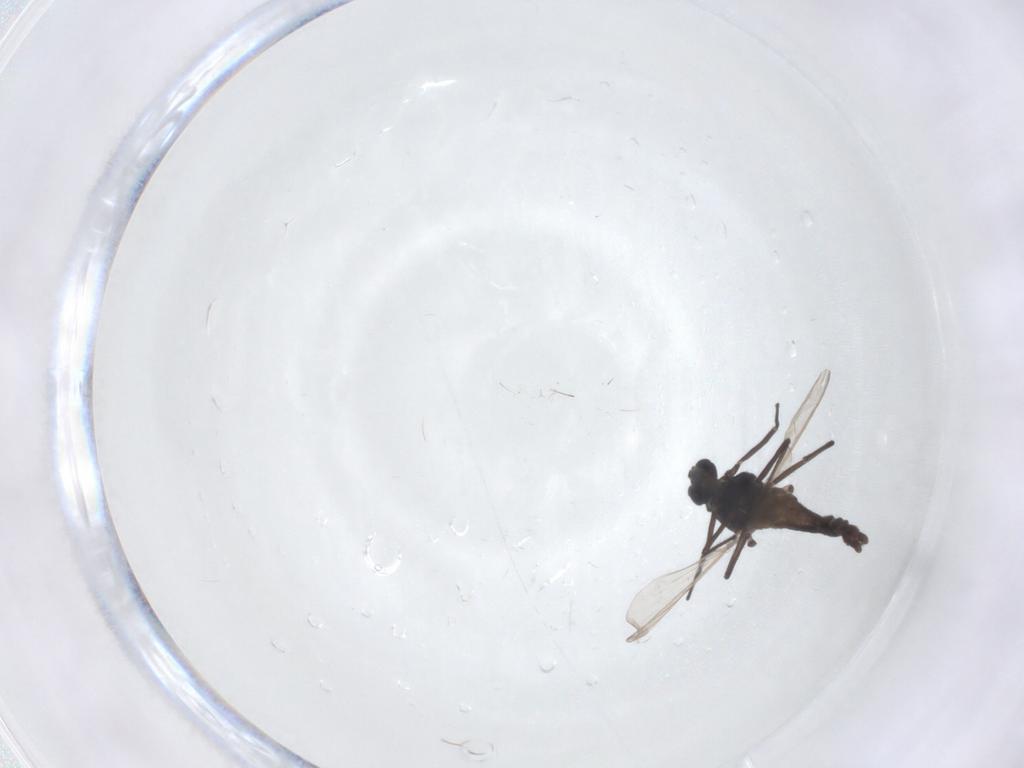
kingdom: Animalia
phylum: Arthropoda
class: Insecta
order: Diptera
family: Chironomidae
